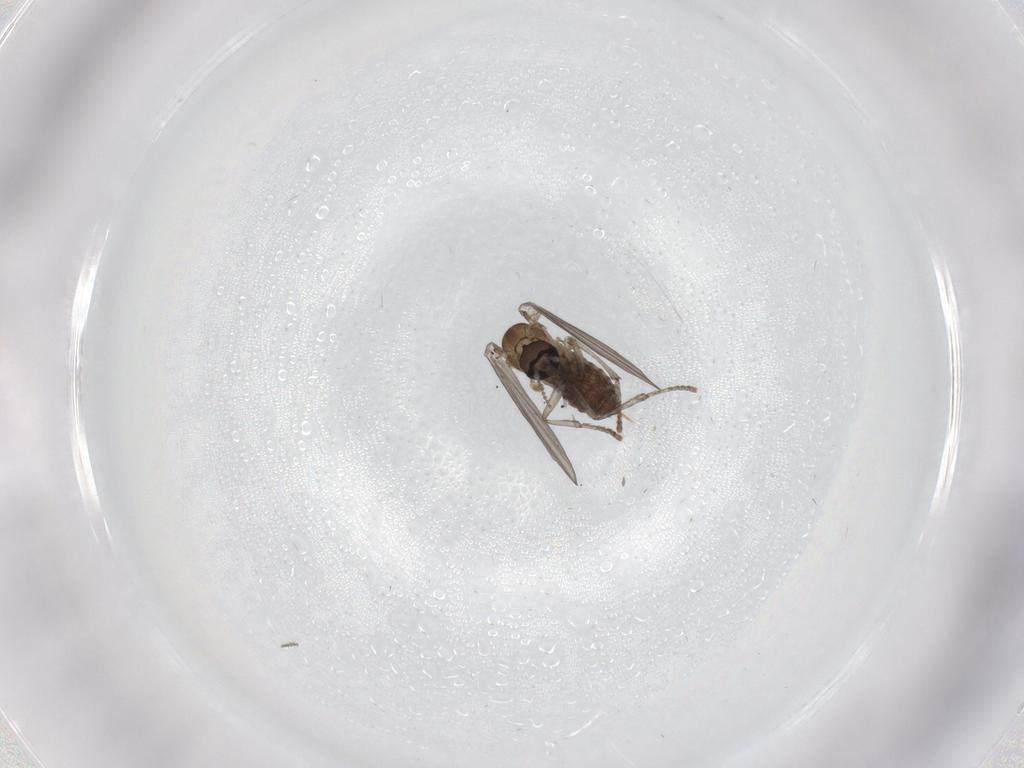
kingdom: Animalia
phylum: Arthropoda
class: Insecta
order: Diptera
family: Psychodidae
